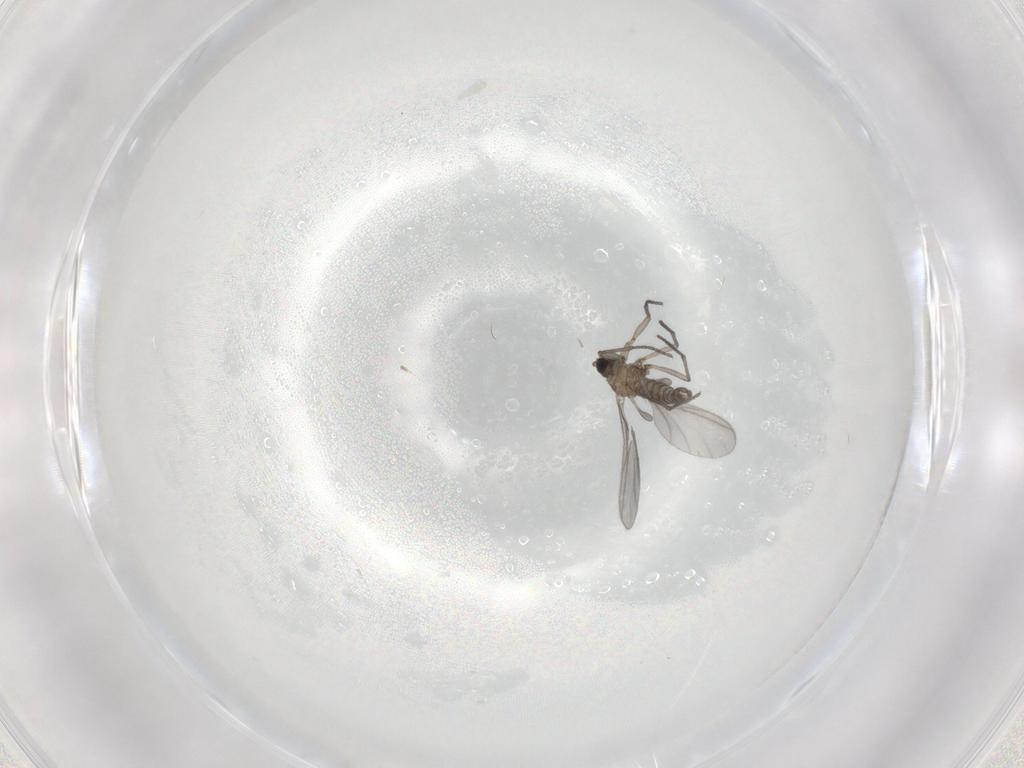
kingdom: Animalia
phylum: Arthropoda
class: Insecta
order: Diptera
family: Sciaridae
